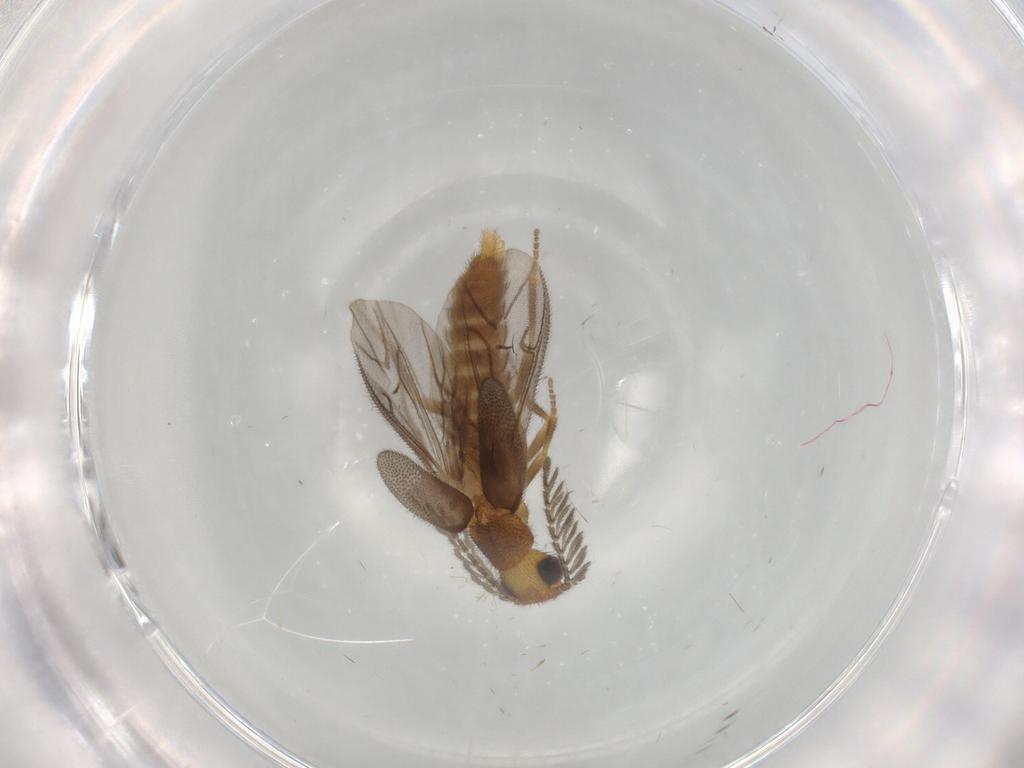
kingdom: Animalia
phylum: Arthropoda
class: Insecta
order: Coleoptera
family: Phengodidae
